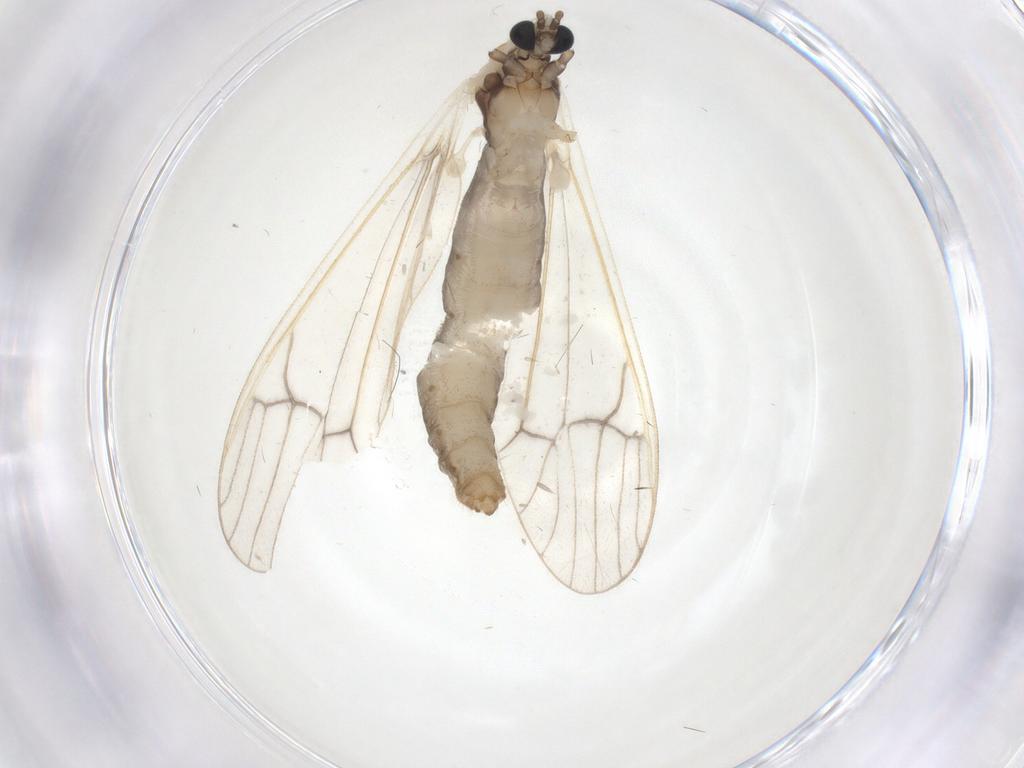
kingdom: Animalia
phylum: Arthropoda
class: Insecta
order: Diptera
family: Limoniidae
